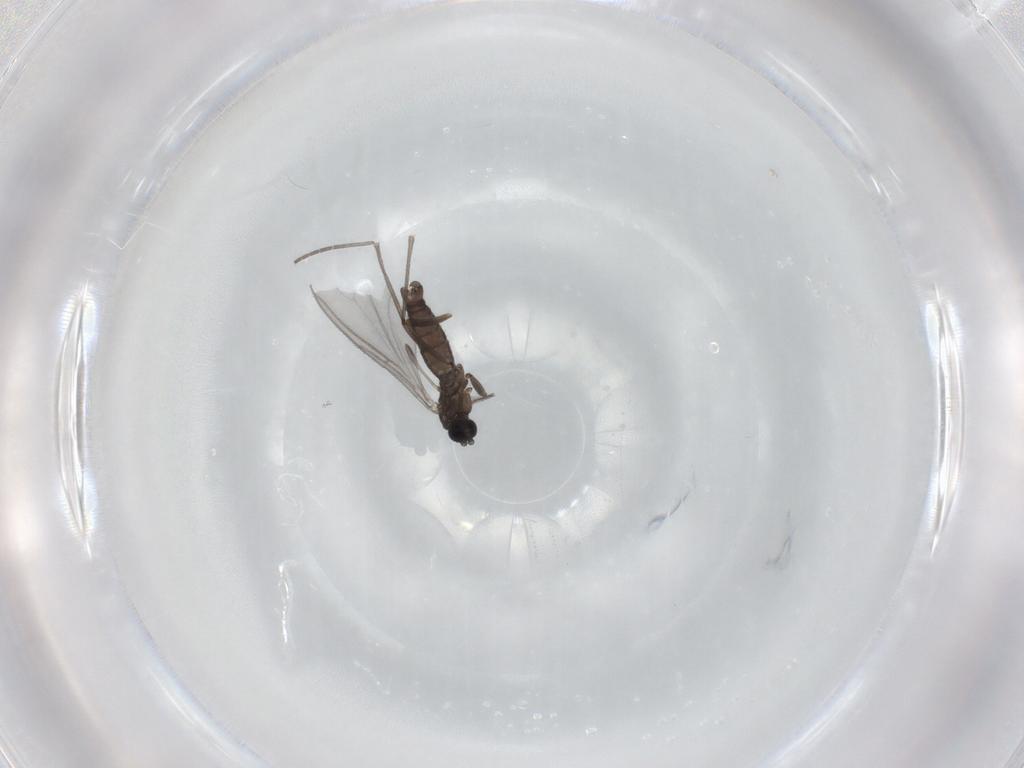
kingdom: Animalia
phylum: Arthropoda
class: Insecta
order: Diptera
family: Sciaridae
